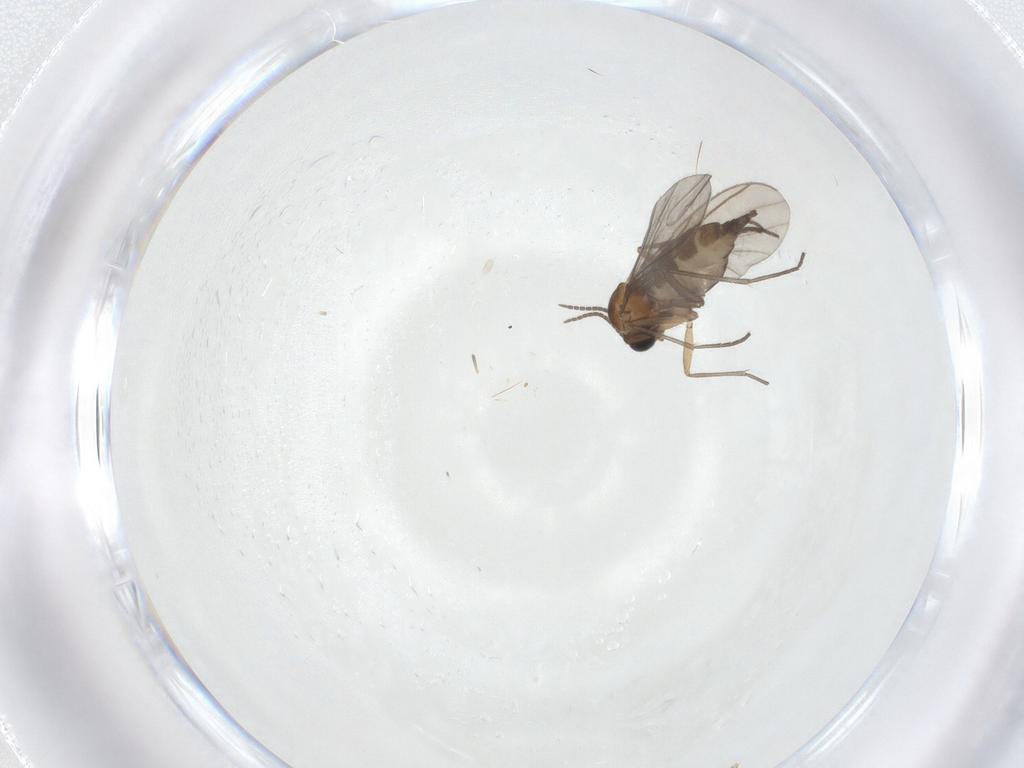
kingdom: Animalia
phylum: Arthropoda
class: Insecta
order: Diptera
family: Sciaridae
